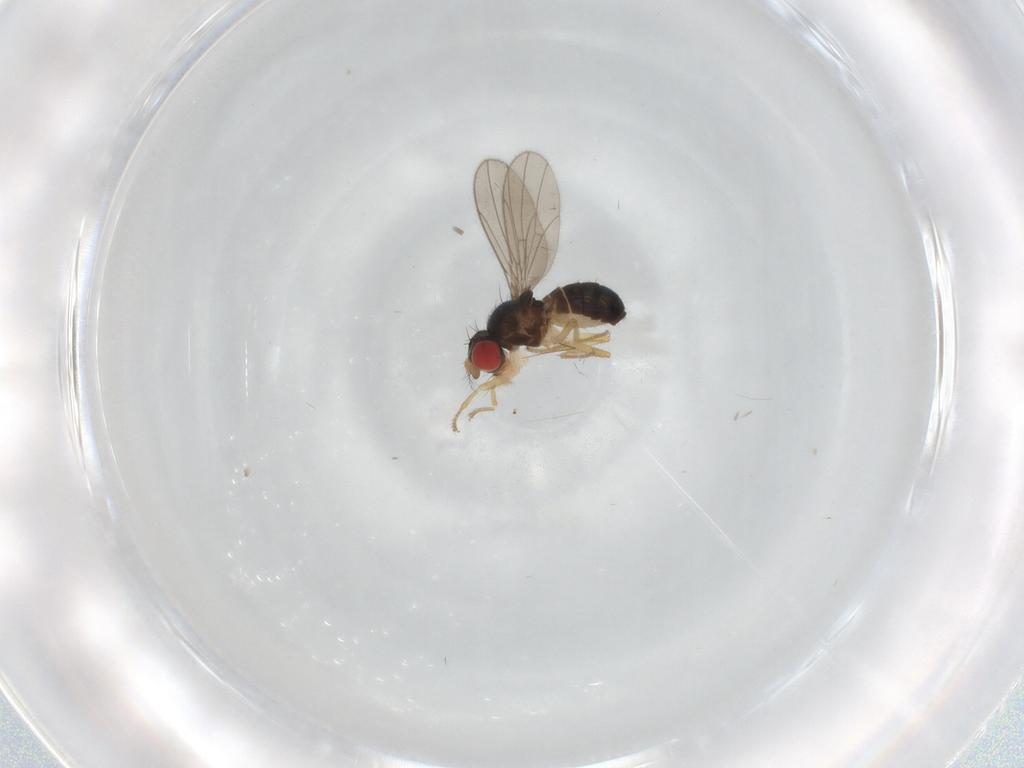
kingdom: Animalia
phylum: Arthropoda
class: Insecta
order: Diptera
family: Drosophilidae
